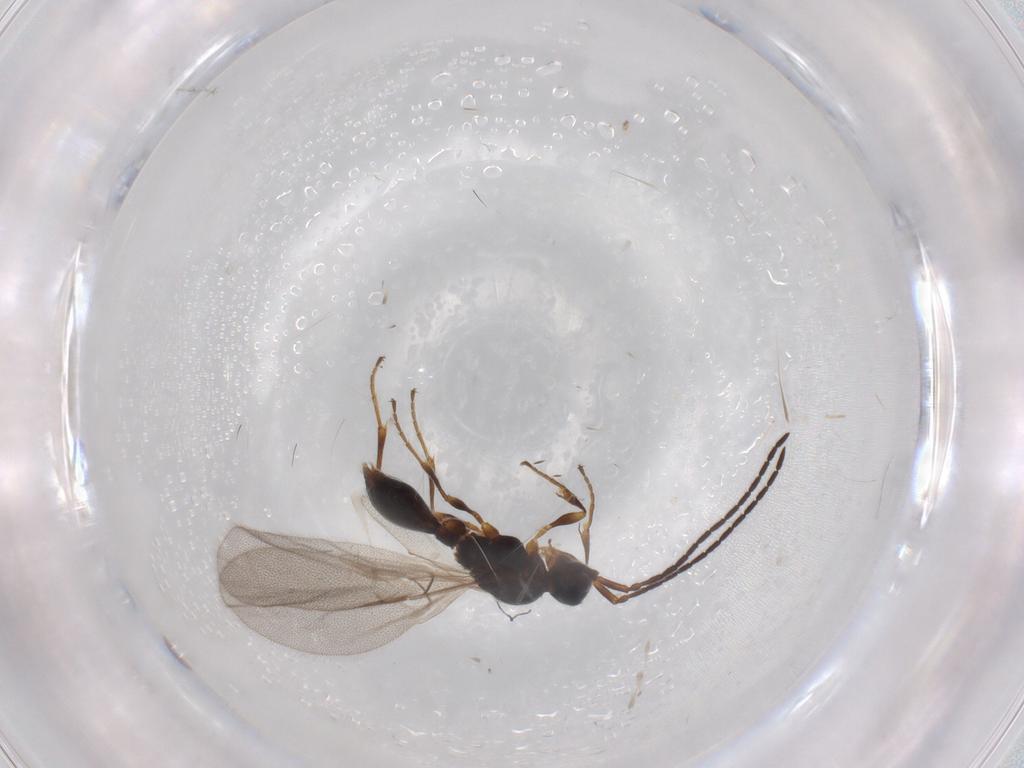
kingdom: Animalia
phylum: Arthropoda
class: Insecta
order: Hymenoptera
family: Diapriidae
